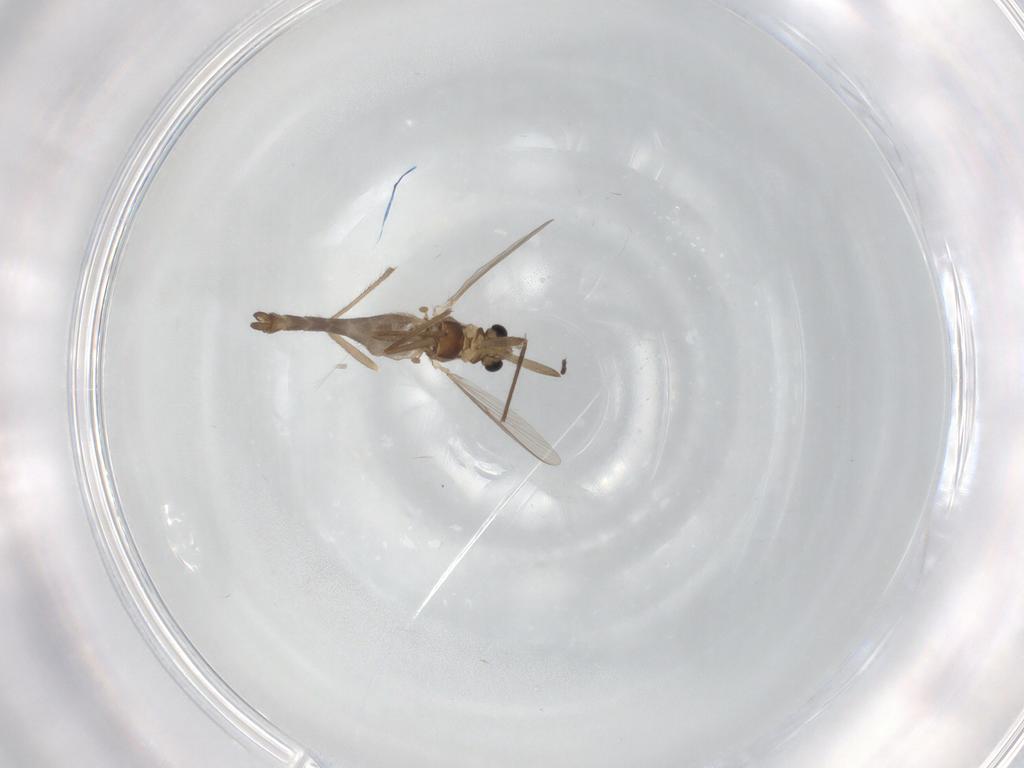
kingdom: Animalia
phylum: Arthropoda
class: Insecta
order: Diptera
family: Chironomidae
